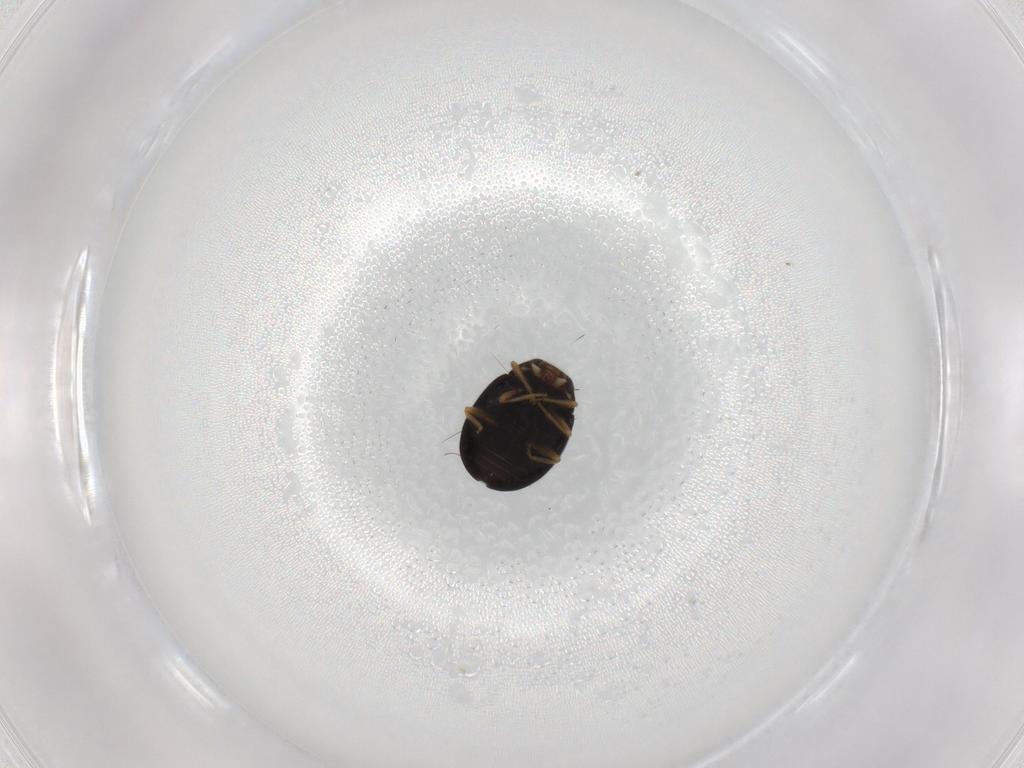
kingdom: Animalia
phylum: Arthropoda
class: Insecta
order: Coleoptera
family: Coccinellidae
